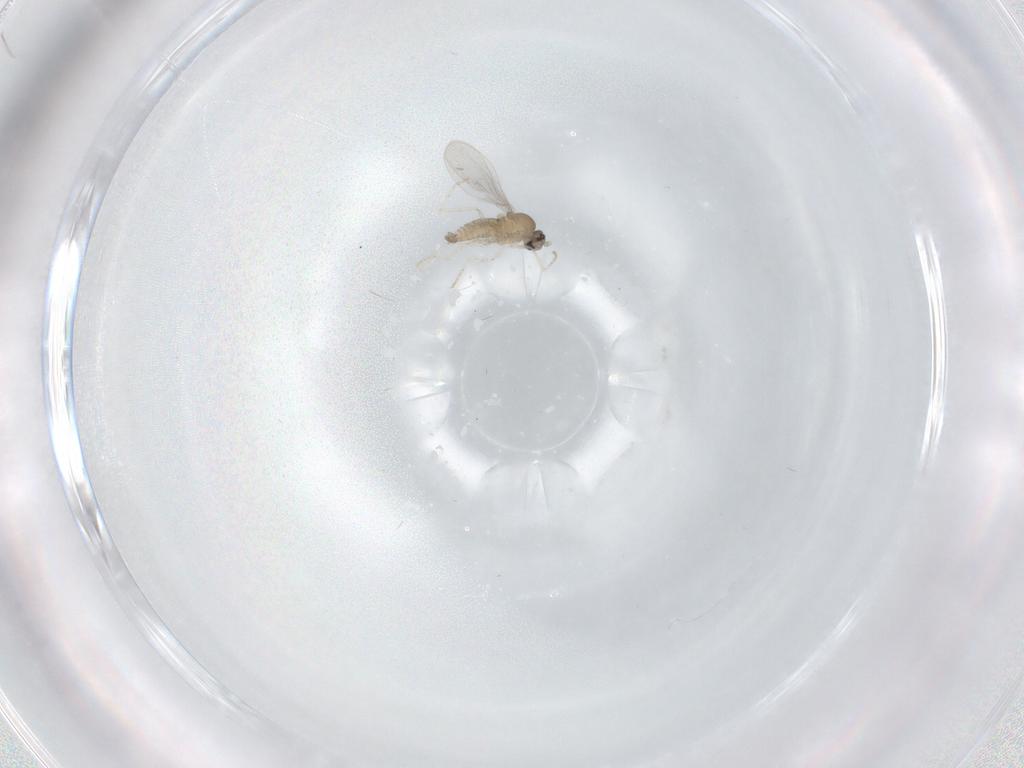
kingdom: Animalia
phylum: Arthropoda
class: Insecta
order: Diptera
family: Cecidomyiidae
